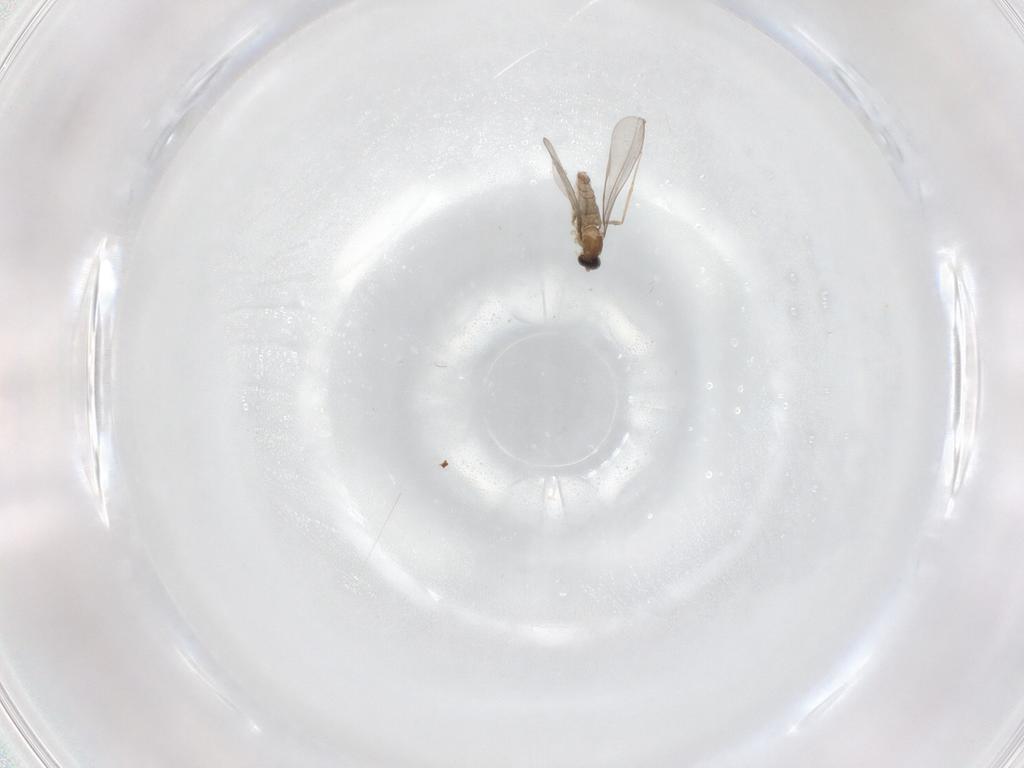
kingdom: Animalia
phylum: Arthropoda
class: Insecta
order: Diptera
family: Cecidomyiidae
